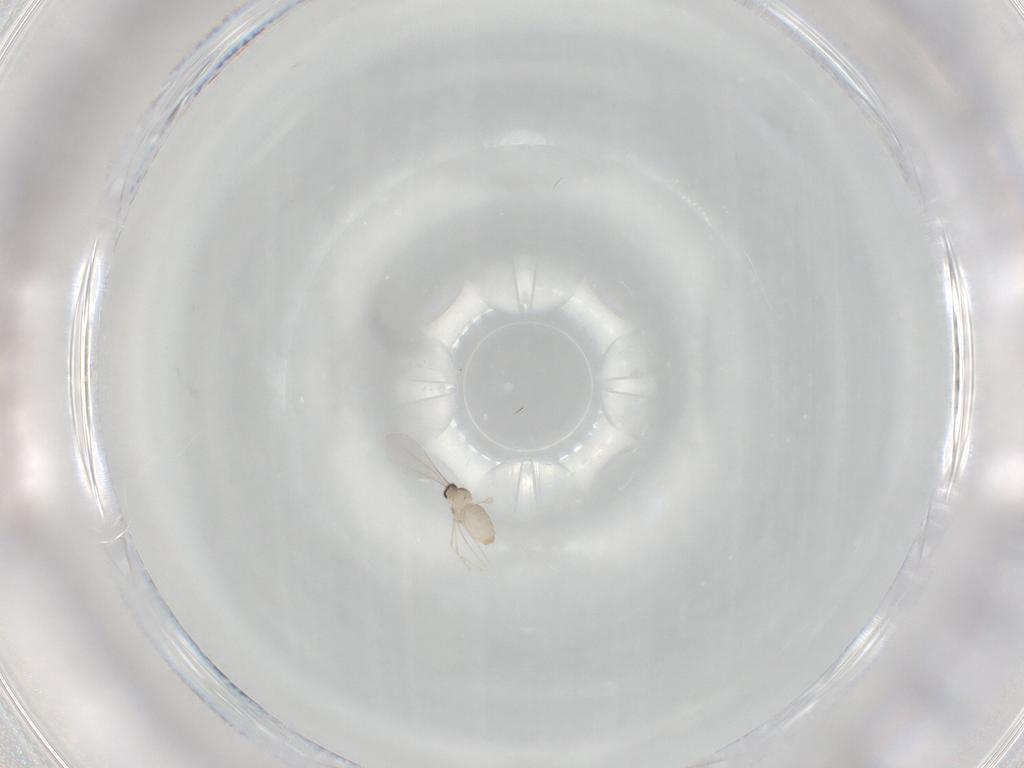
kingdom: Animalia
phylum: Arthropoda
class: Insecta
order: Diptera
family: Cecidomyiidae
